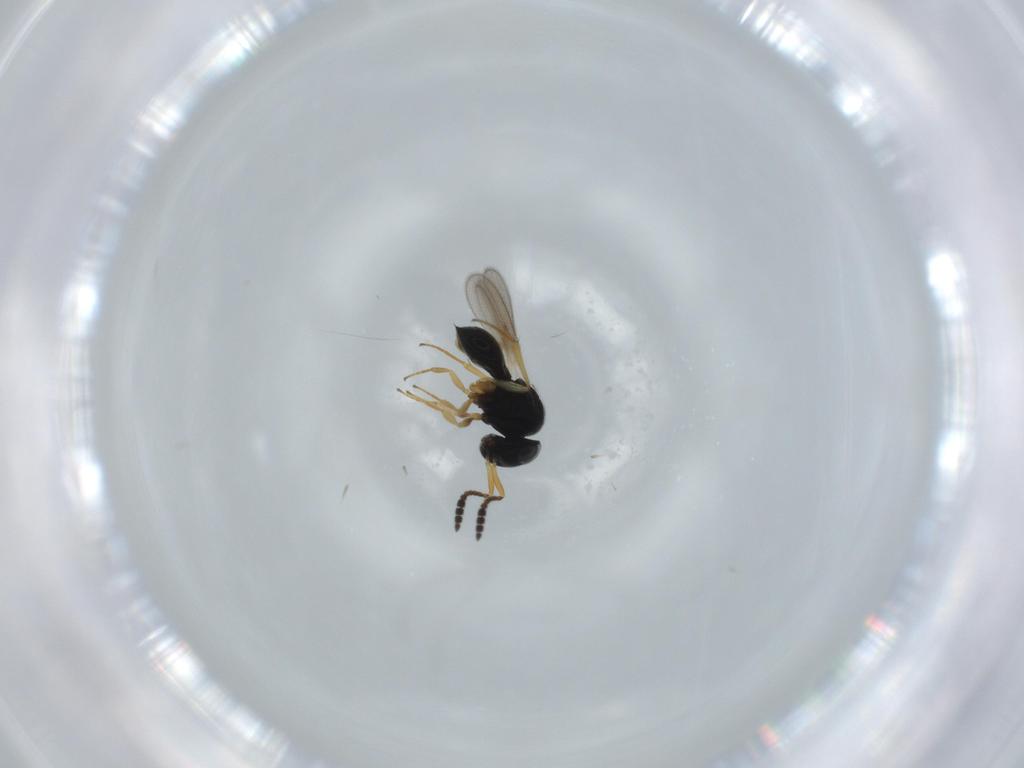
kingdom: Animalia
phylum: Arthropoda
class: Insecta
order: Hymenoptera
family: Scelionidae
